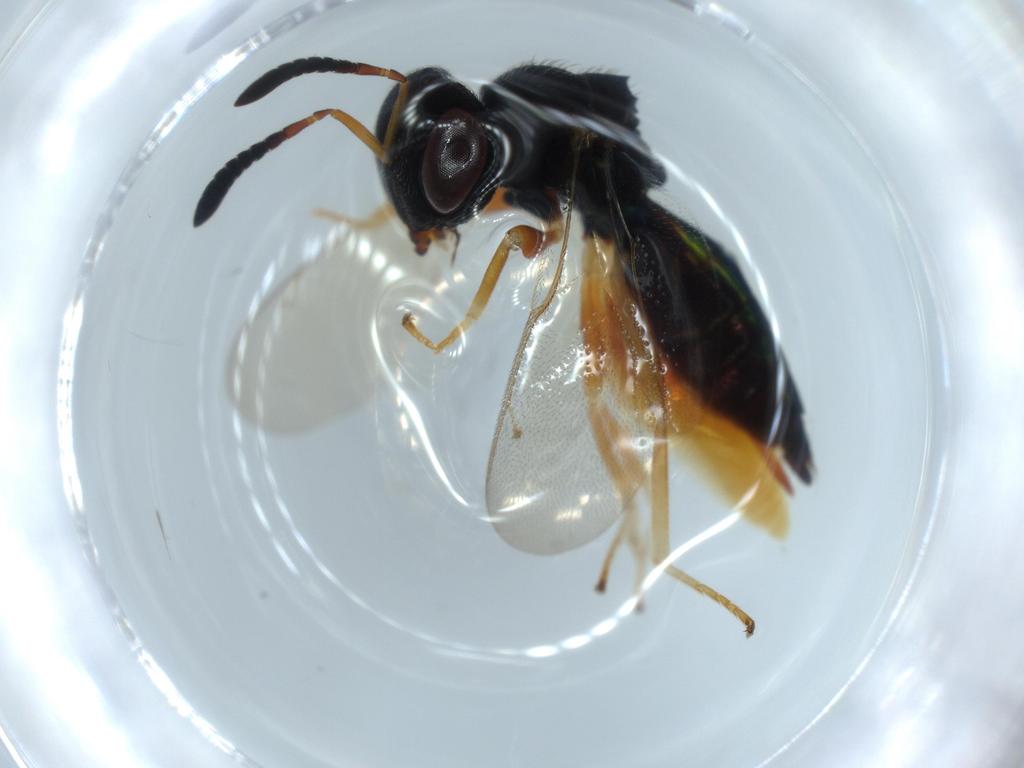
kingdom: Animalia
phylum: Arthropoda
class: Insecta
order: Hymenoptera
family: Pteromalidae
